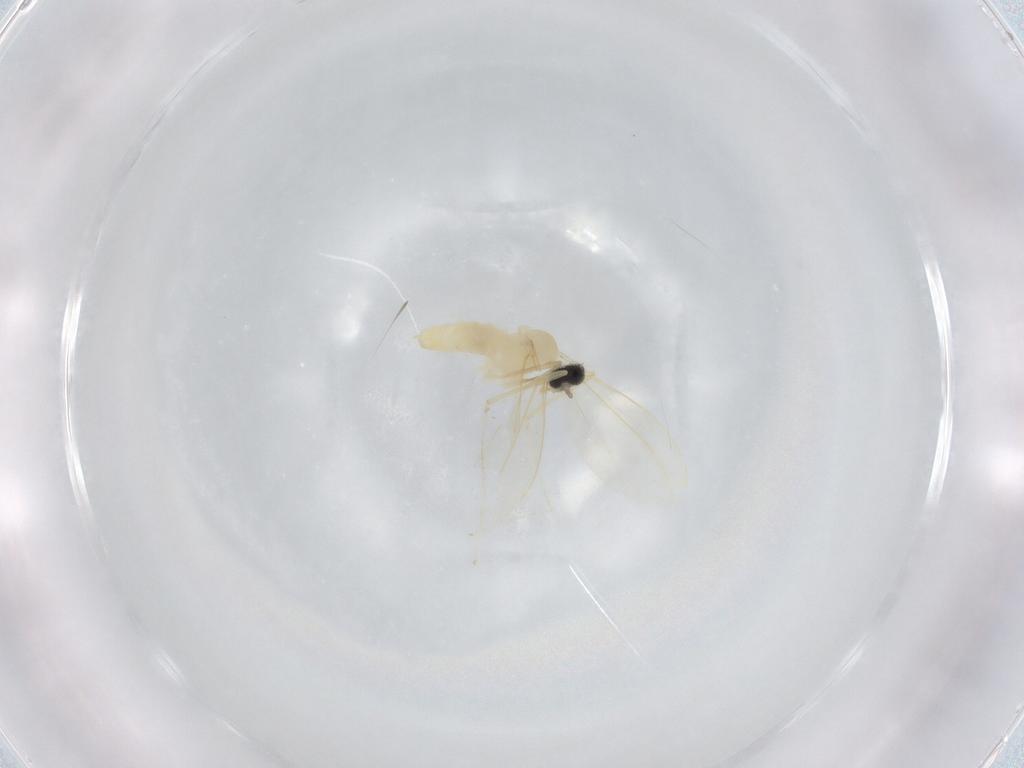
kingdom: Animalia
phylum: Arthropoda
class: Insecta
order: Diptera
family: Cecidomyiidae
